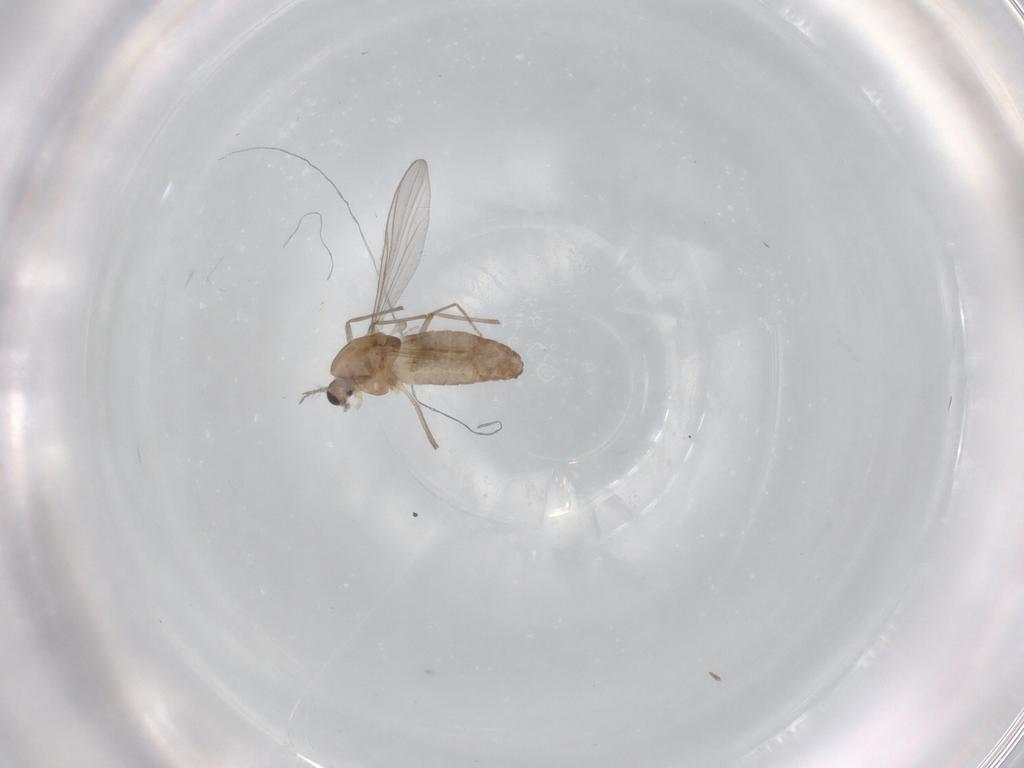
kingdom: Animalia
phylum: Arthropoda
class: Insecta
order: Diptera
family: Chironomidae
